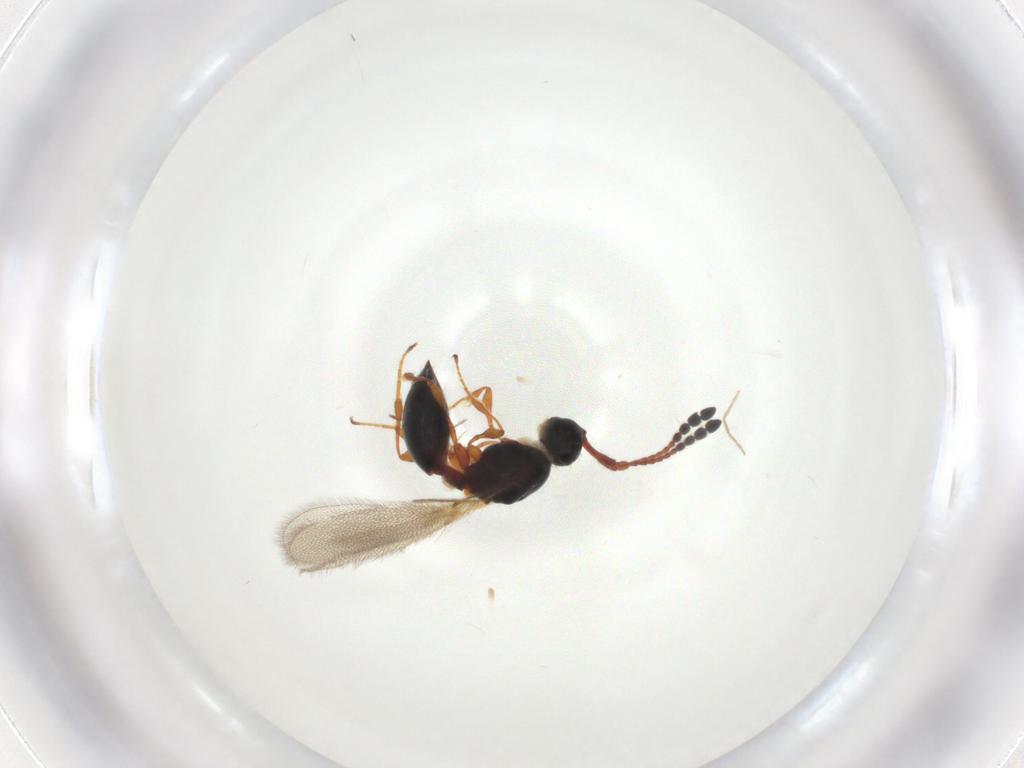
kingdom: Animalia
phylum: Arthropoda
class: Insecta
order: Hymenoptera
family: Diapriidae
